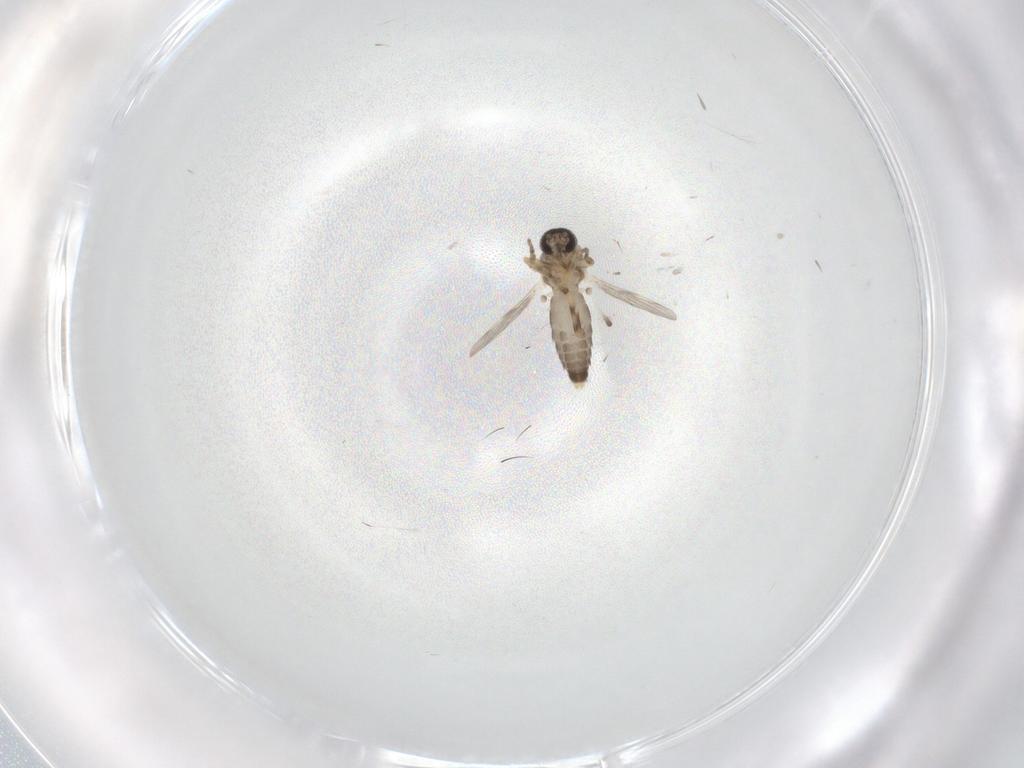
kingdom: Animalia
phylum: Arthropoda
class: Insecta
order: Diptera
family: Ceratopogonidae
